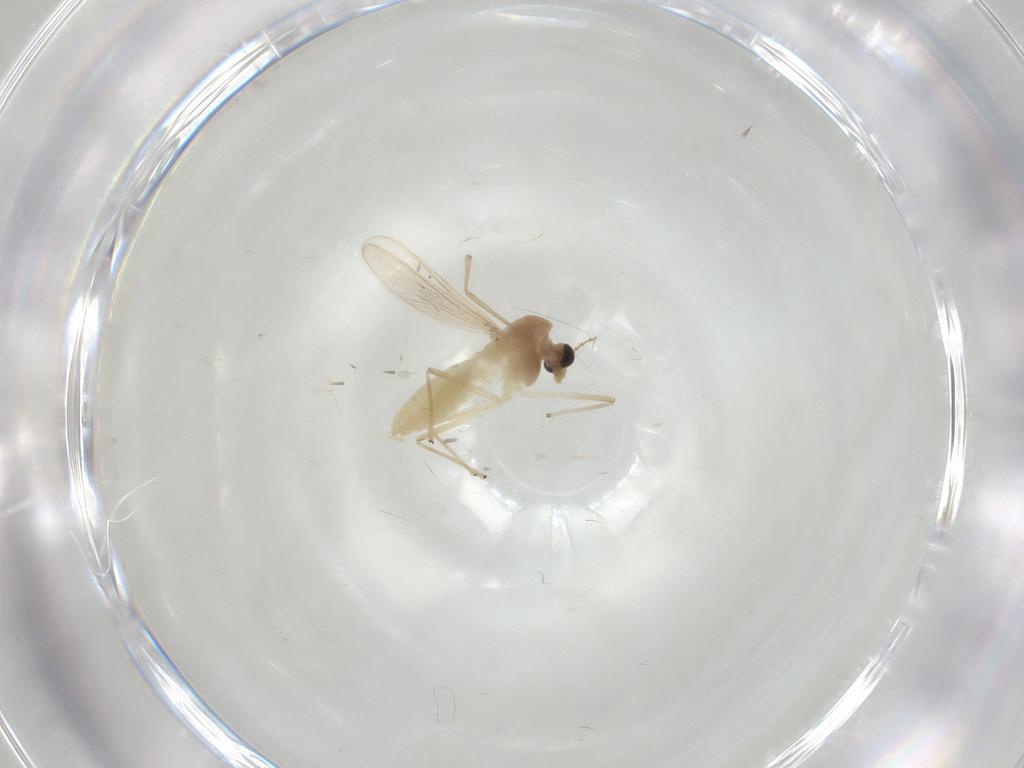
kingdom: Animalia
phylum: Arthropoda
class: Insecta
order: Diptera
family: Chironomidae
